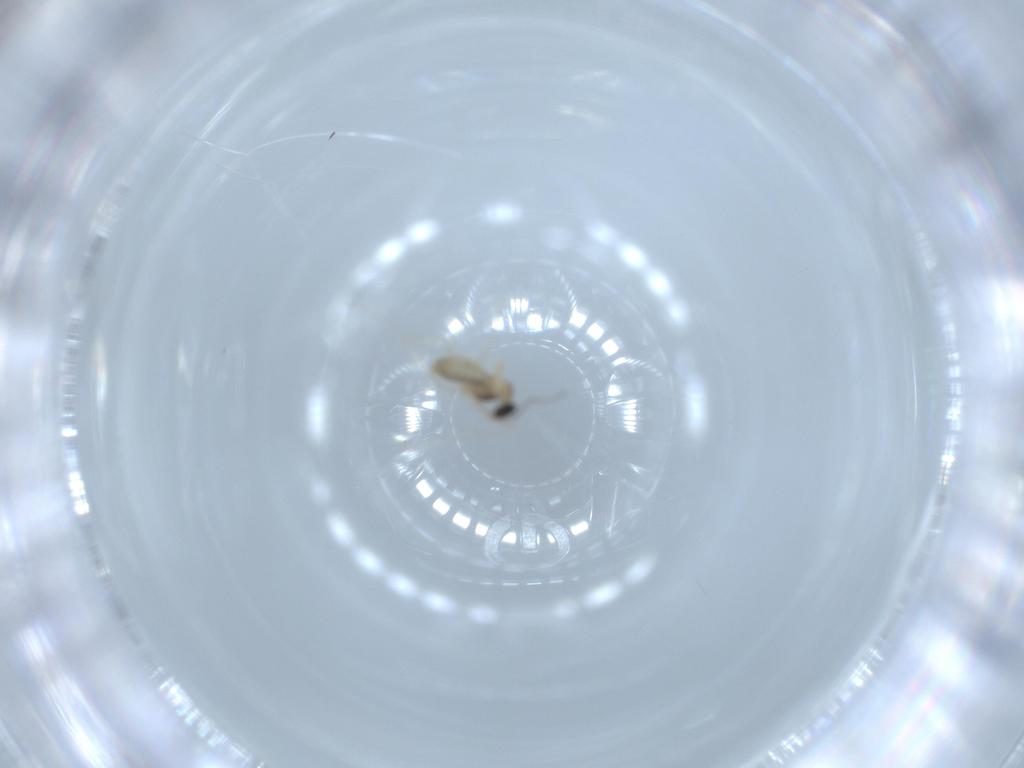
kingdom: Animalia
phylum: Arthropoda
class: Insecta
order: Diptera
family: Cecidomyiidae
